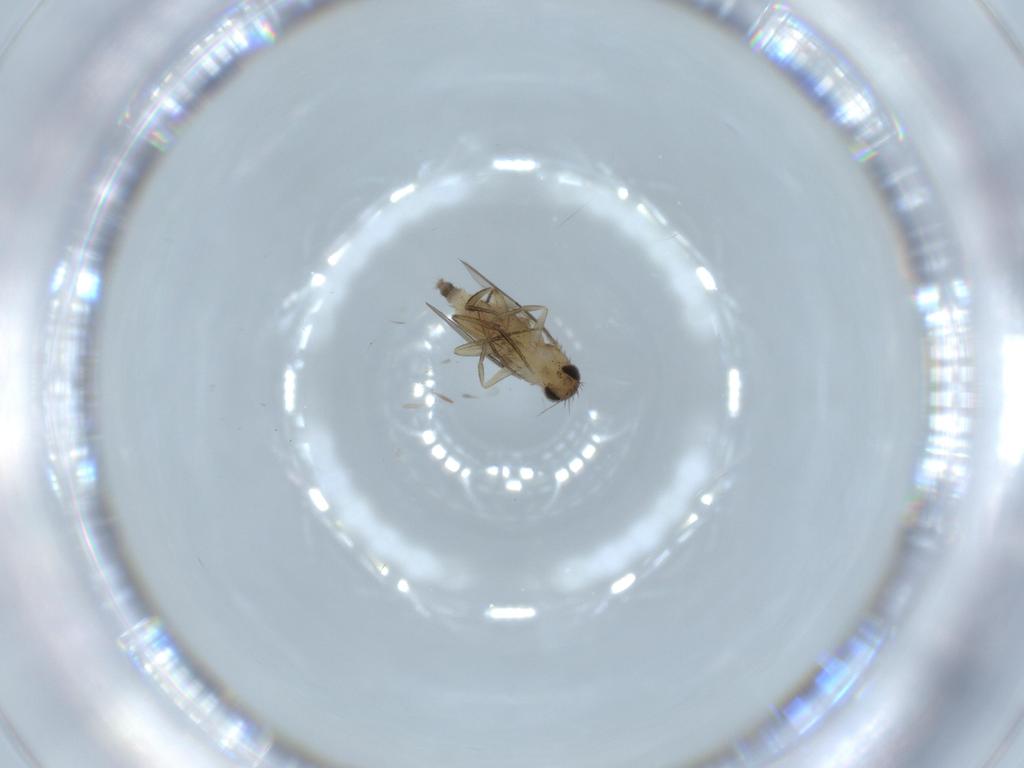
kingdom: Animalia
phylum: Arthropoda
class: Insecta
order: Diptera
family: Phoridae
